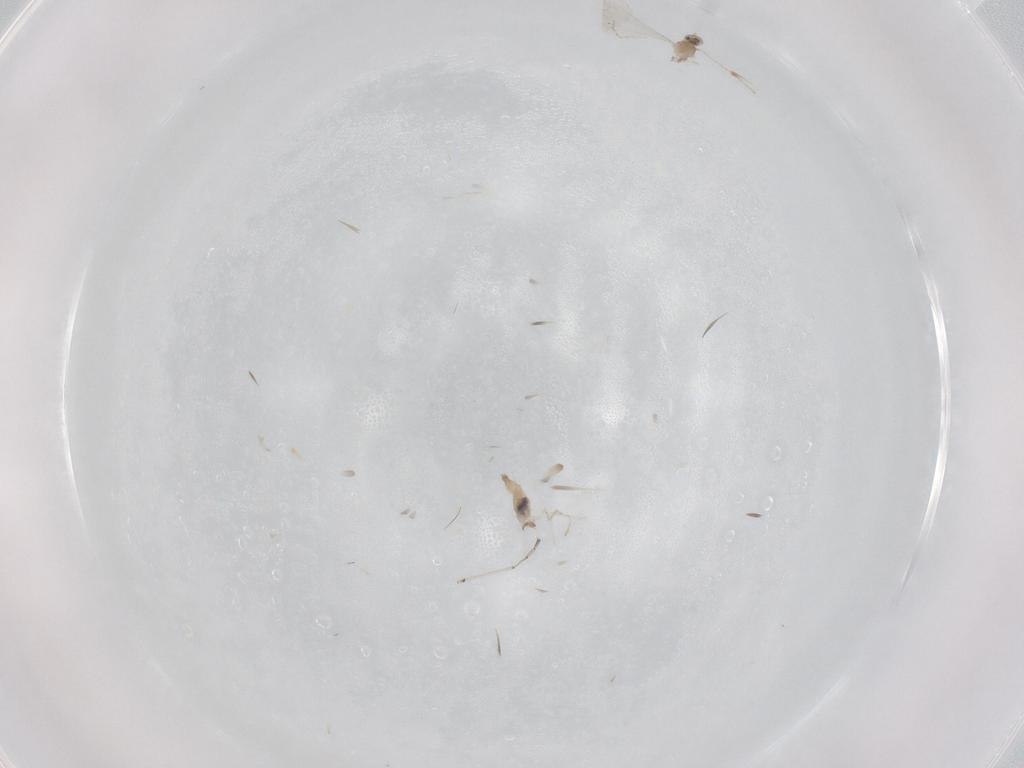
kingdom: Animalia
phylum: Arthropoda
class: Insecta
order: Diptera
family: Cecidomyiidae
